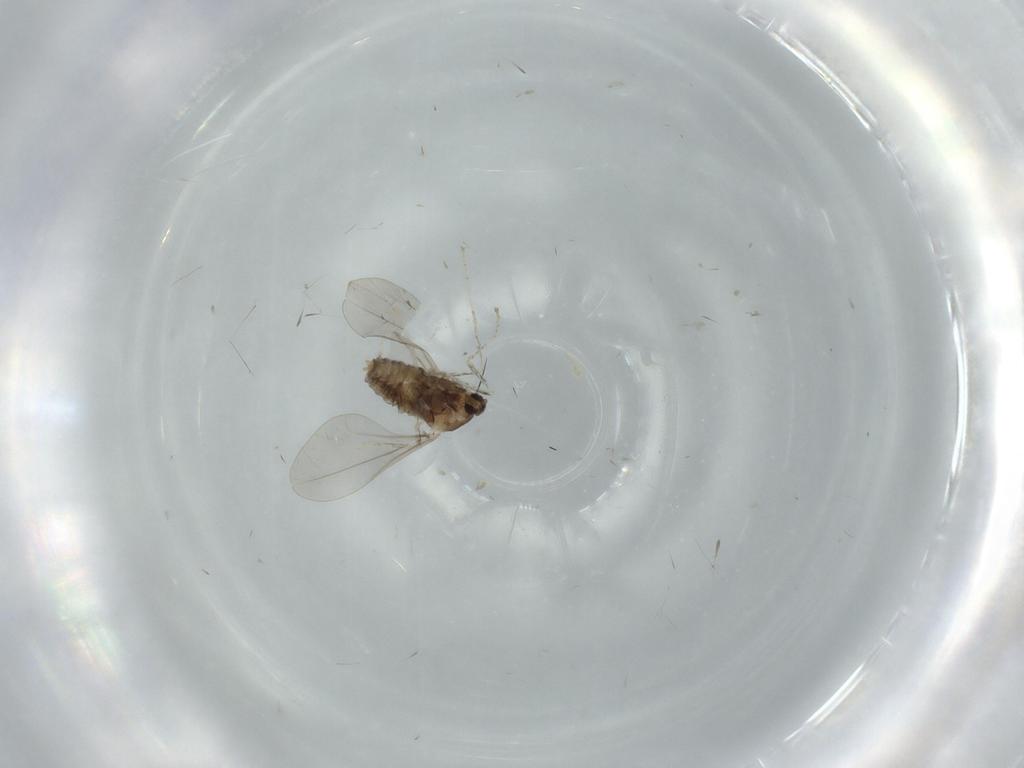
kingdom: Animalia
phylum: Arthropoda
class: Insecta
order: Diptera
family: Cecidomyiidae
